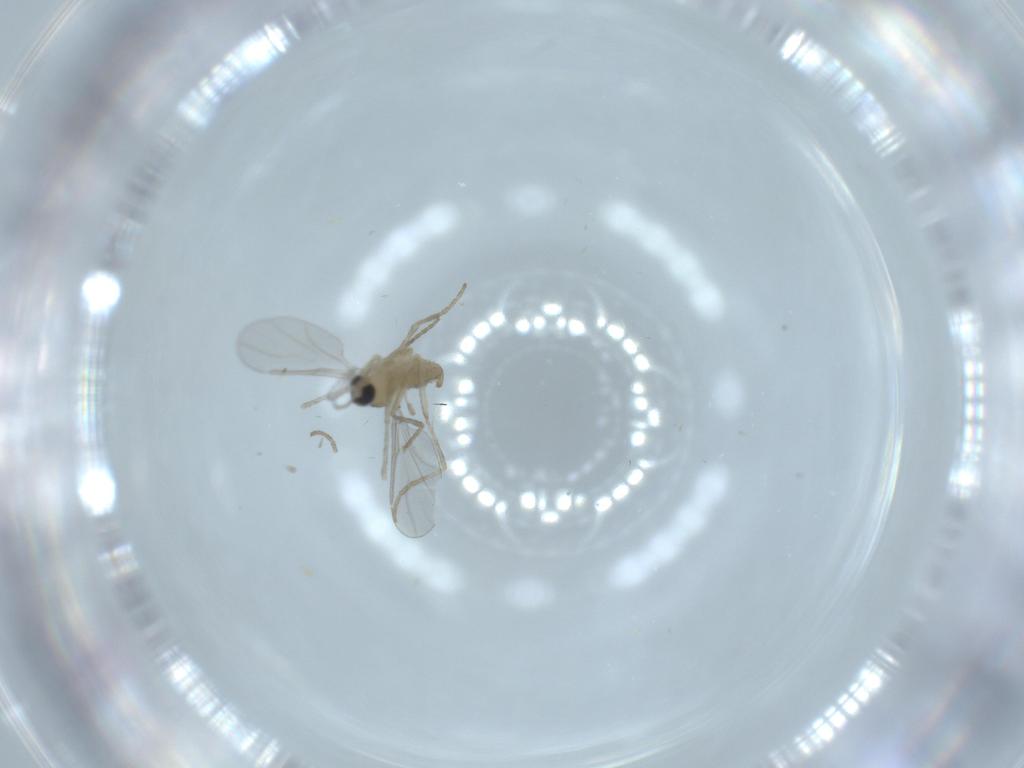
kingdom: Animalia
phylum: Arthropoda
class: Insecta
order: Diptera
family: Cecidomyiidae
